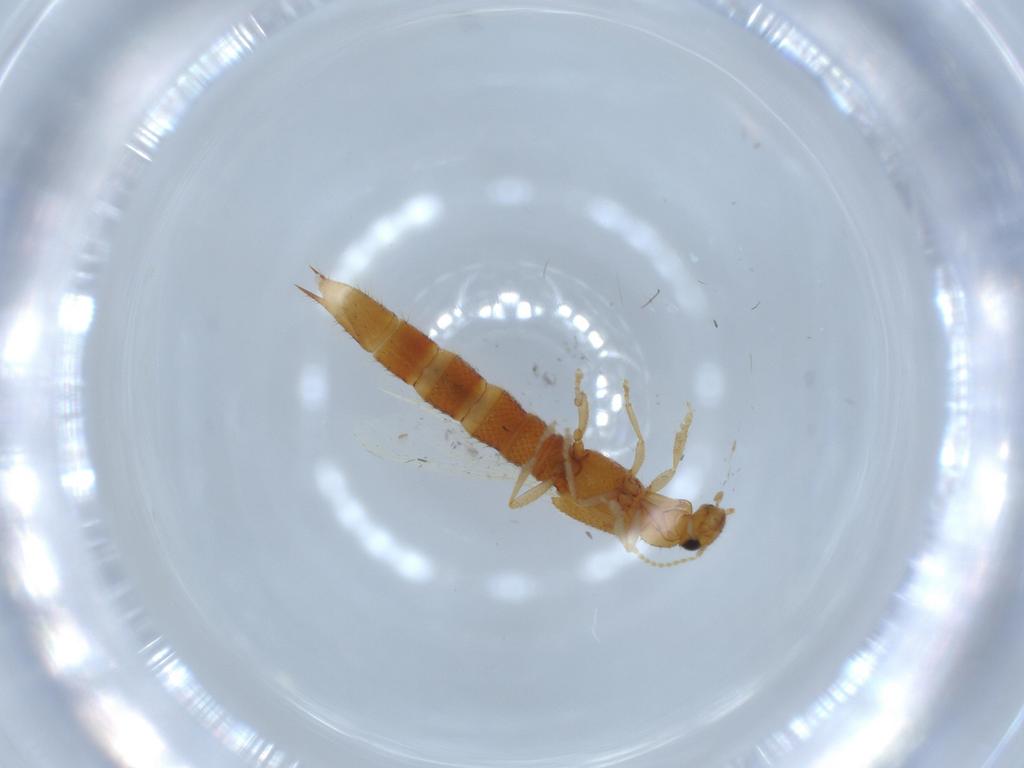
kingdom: Animalia
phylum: Arthropoda
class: Insecta
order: Coleoptera
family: Staphylinidae
